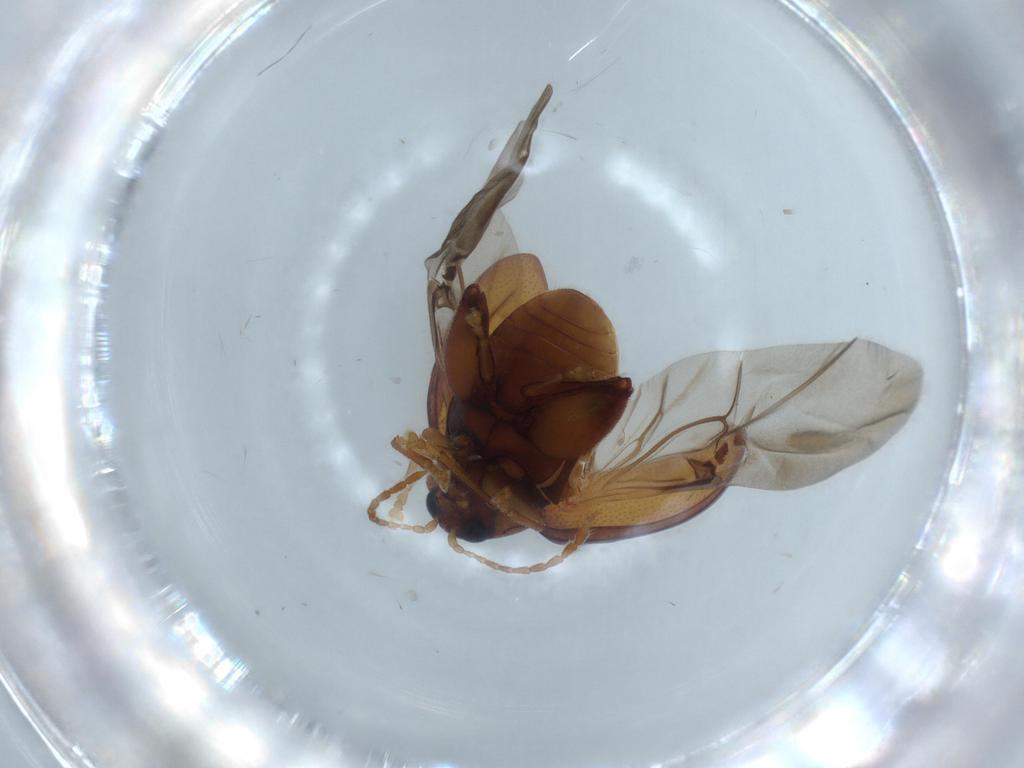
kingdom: Animalia
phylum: Arthropoda
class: Insecta
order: Coleoptera
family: Chrysomelidae
